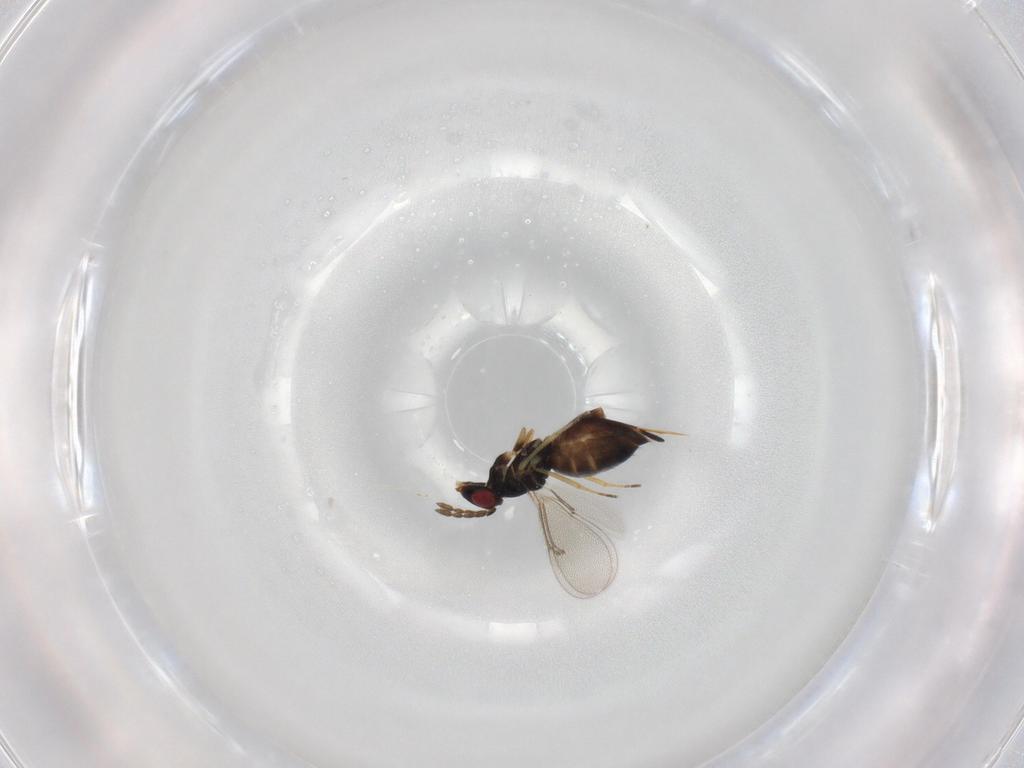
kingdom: Animalia
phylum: Arthropoda
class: Insecta
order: Hymenoptera
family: Eulophidae
